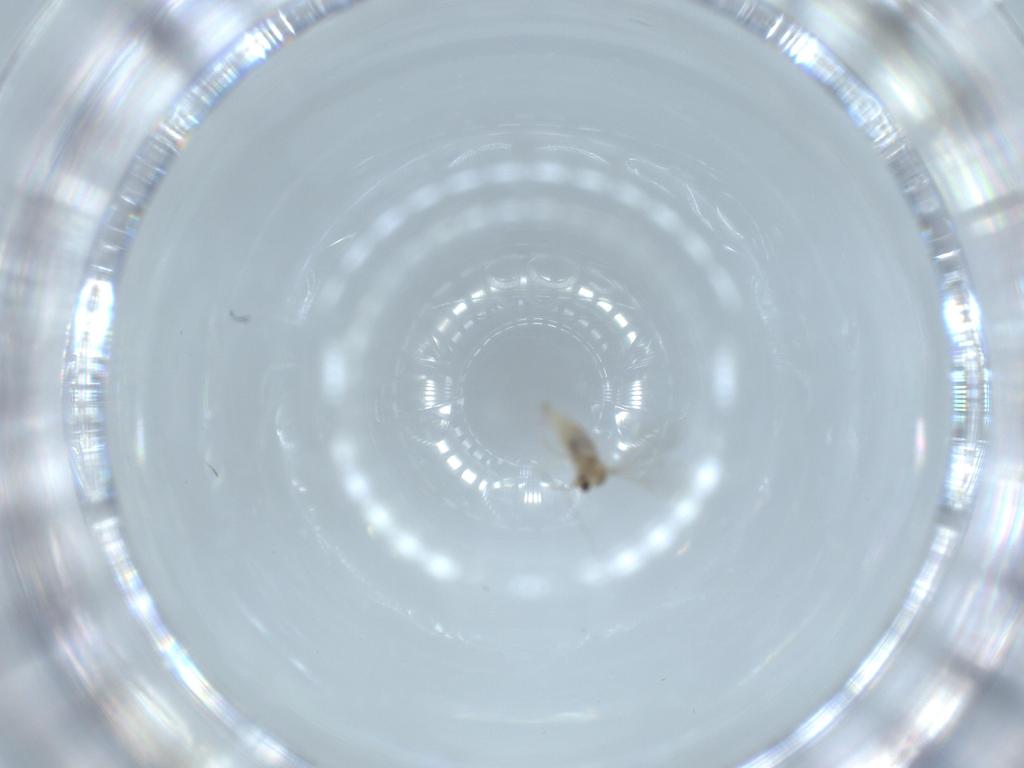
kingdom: Animalia
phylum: Arthropoda
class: Insecta
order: Diptera
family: Cecidomyiidae
